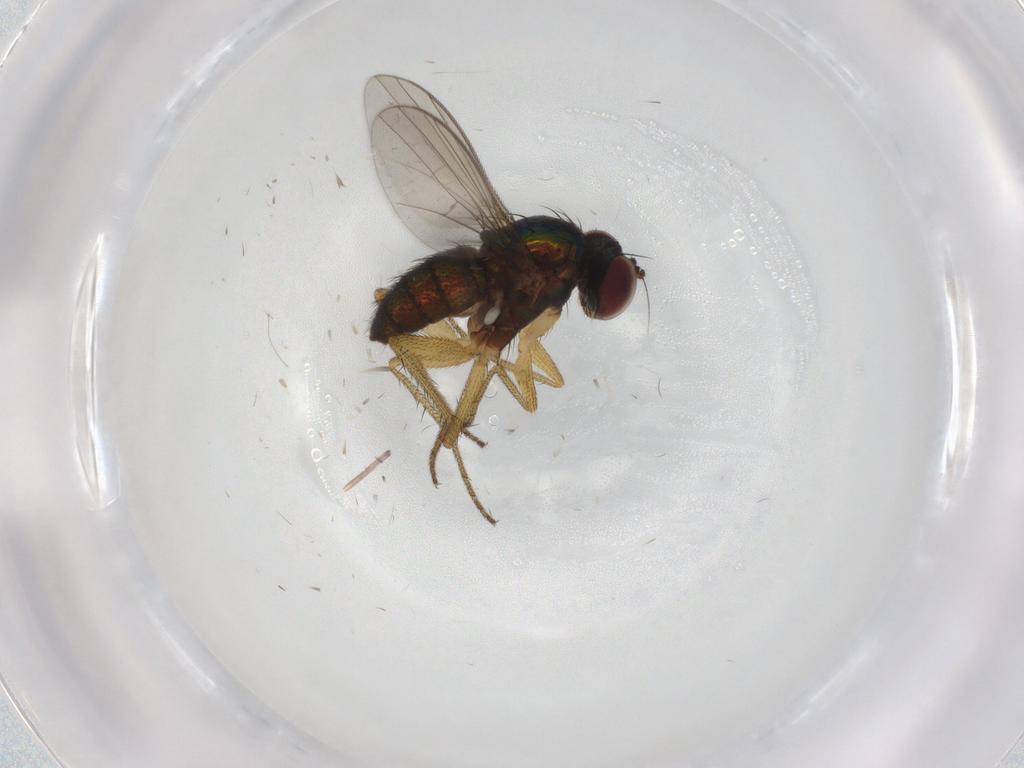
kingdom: Animalia
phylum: Arthropoda
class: Insecta
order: Diptera
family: Dolichopodidae
